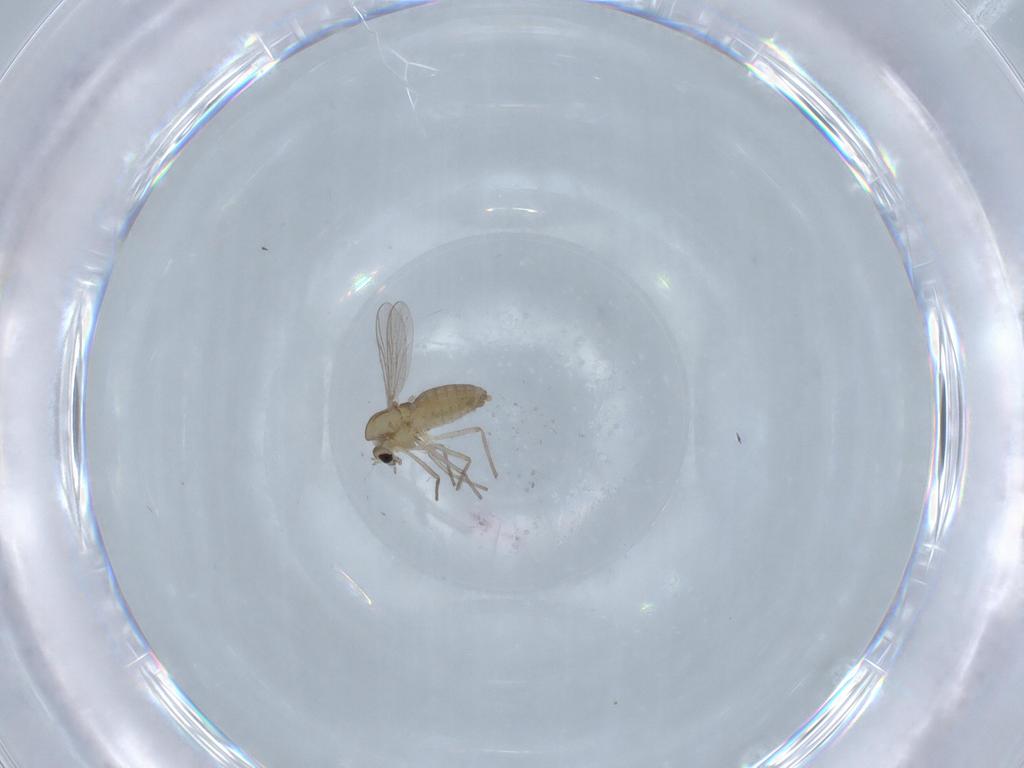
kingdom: Animalia
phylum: Arthropoda
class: Insecta
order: Diptera
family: Chironomidae
